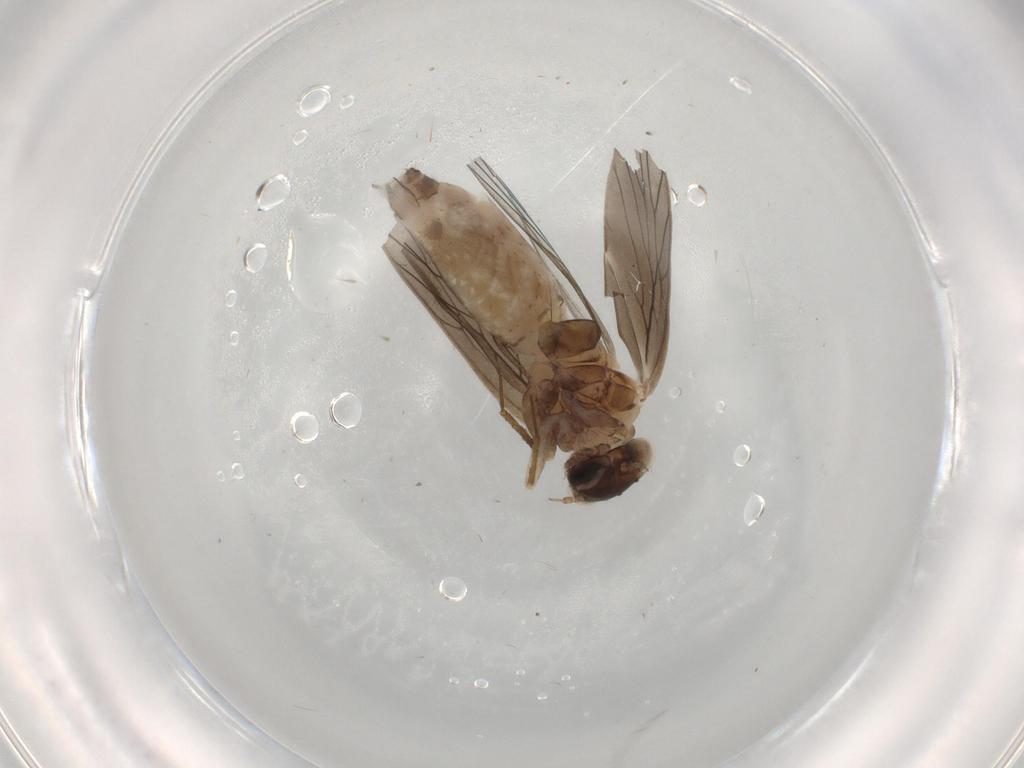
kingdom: Animalia
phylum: Arthropoda
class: Insecta
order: Psocodea
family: Lepidopsocidae
